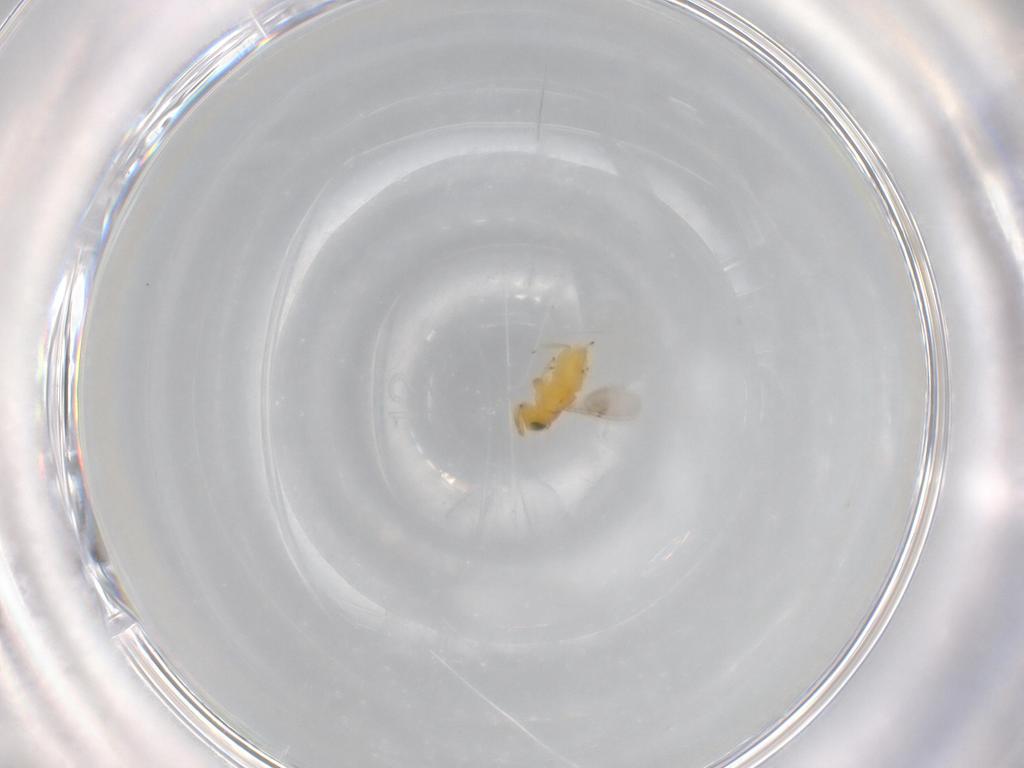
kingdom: Animalia
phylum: Arthropoda
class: Insecta
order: Hymenoptera
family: Encyrtidae
